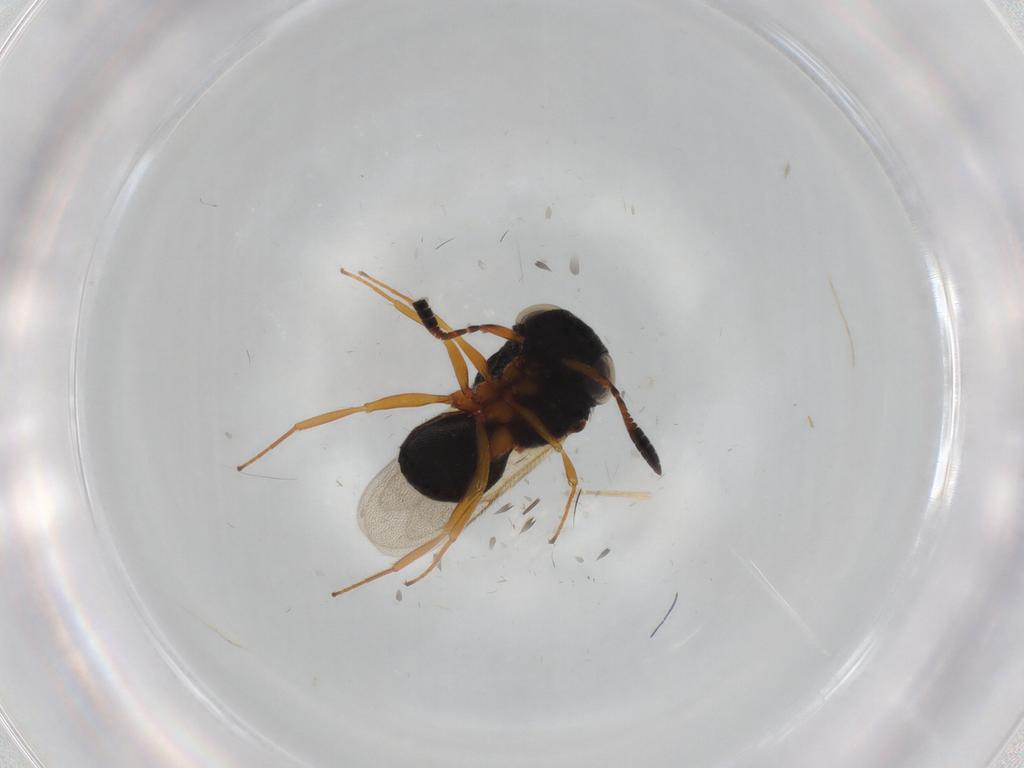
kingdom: Animalia
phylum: Arthropoda
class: Insecta
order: Hymenoptera
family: Scelionidae
